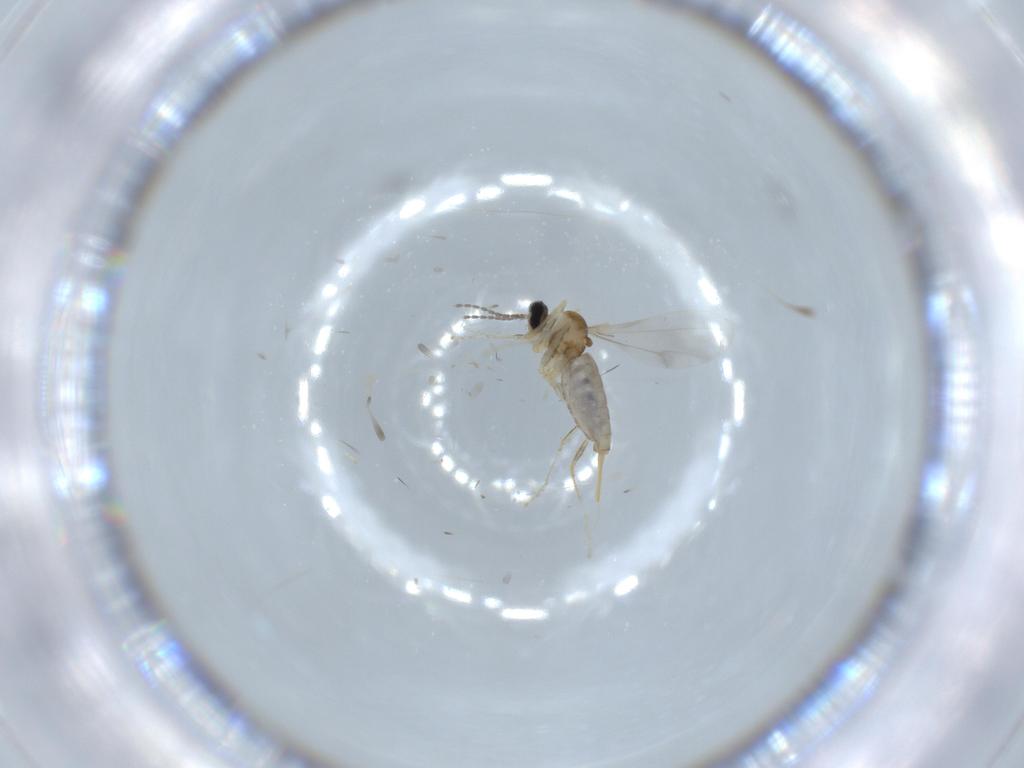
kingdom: Animalia
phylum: Arthropoda
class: Insecta
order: Diptera
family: Cecidomyiidae
